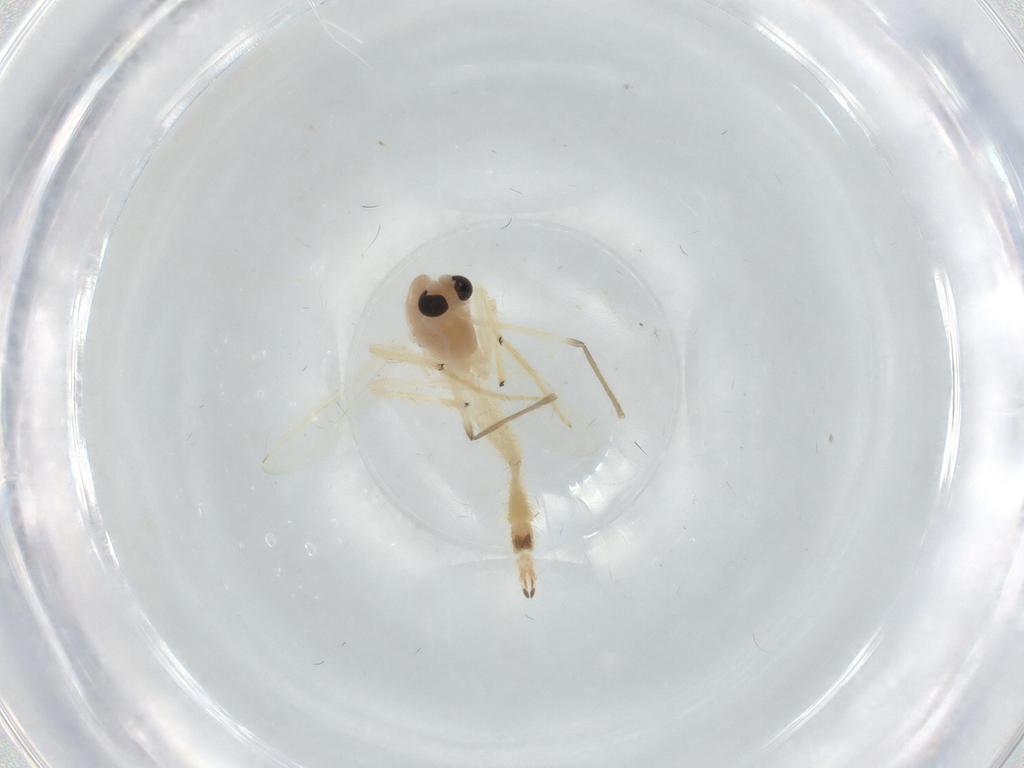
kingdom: Animalia
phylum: Arthropoda
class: Insecta
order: Diptera
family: Chironomidae
